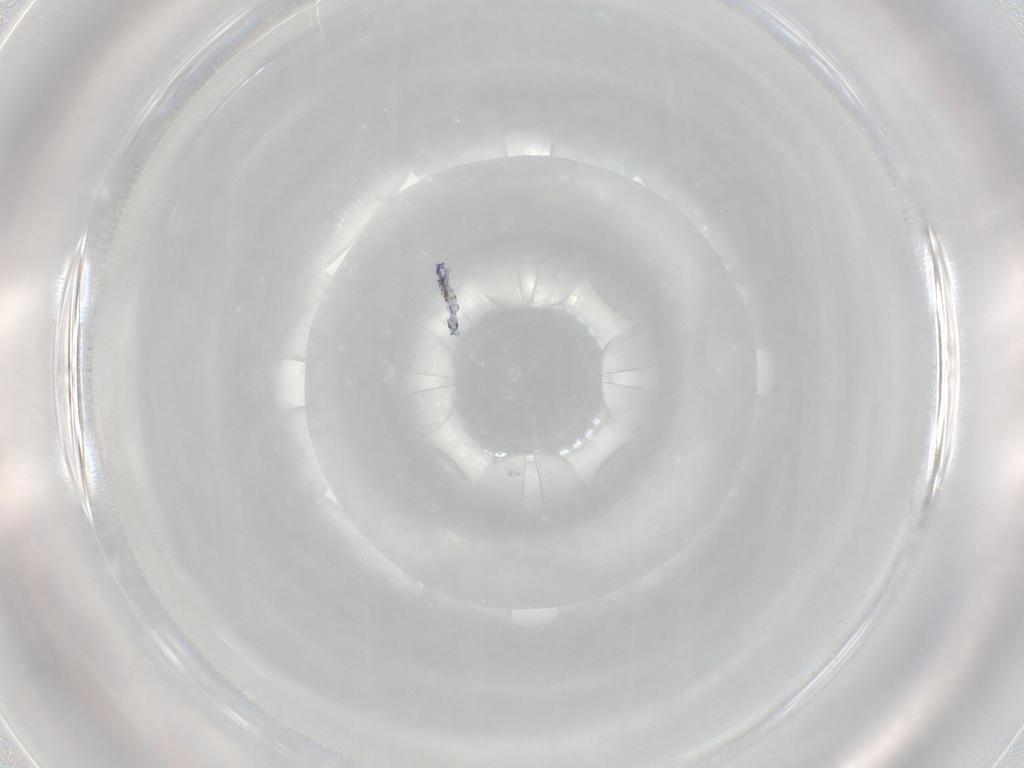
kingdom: Animalia
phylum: Arthropoda
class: Collembola
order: Entomobryomorpha
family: Entomobryidae
